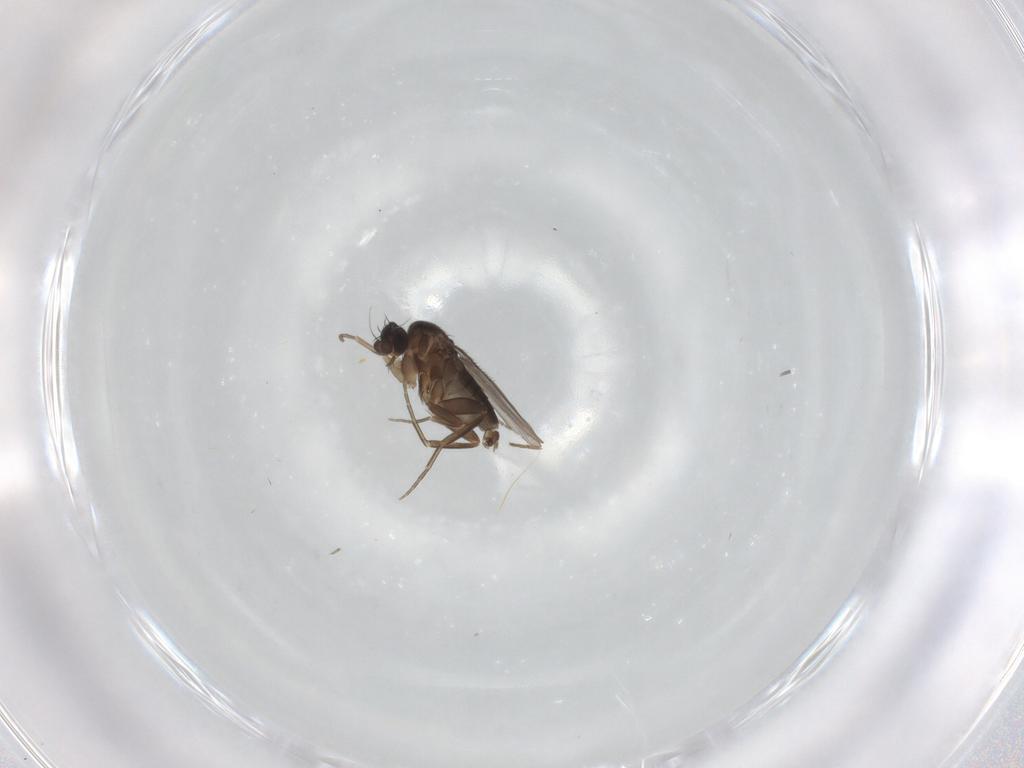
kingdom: Animalia
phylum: Arthropoda
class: Insecta
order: Diptera
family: Phoridae
